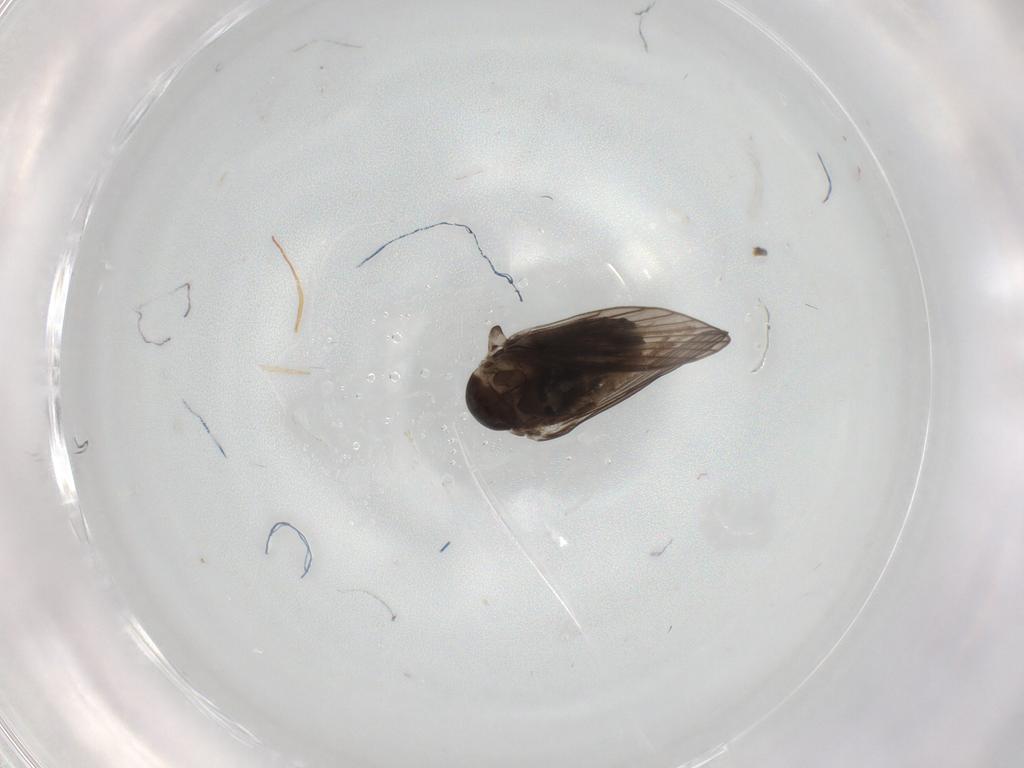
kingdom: Animalia
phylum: Arthropoda
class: Insecta
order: Diptera
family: Psychodidae
